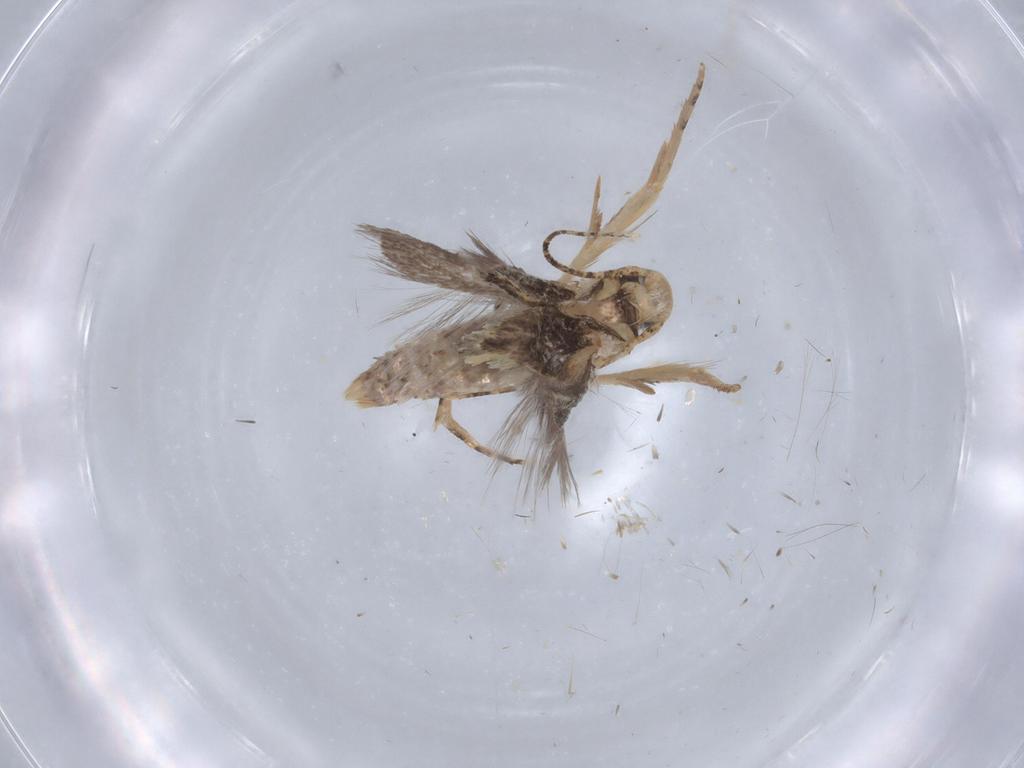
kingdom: Animalia
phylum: Arthropoda
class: Insecta
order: Lepidoptera
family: Gelechiidae
